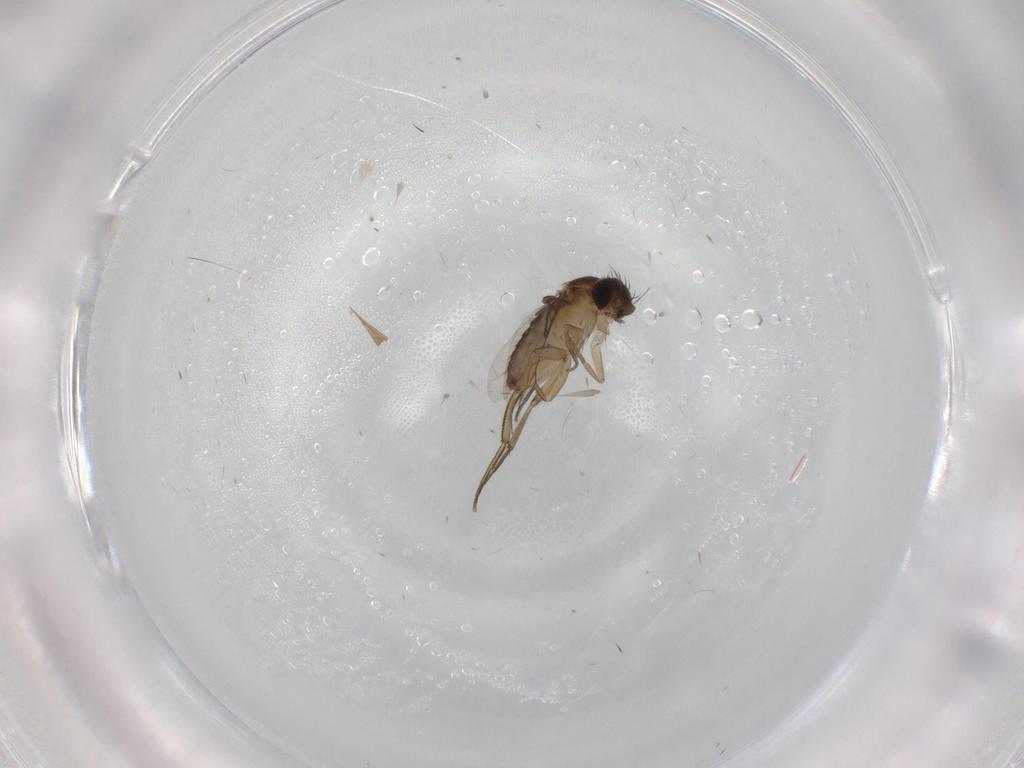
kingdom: Animalia
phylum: Arthropoda
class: Insecta
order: Diptera
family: Phoridae
